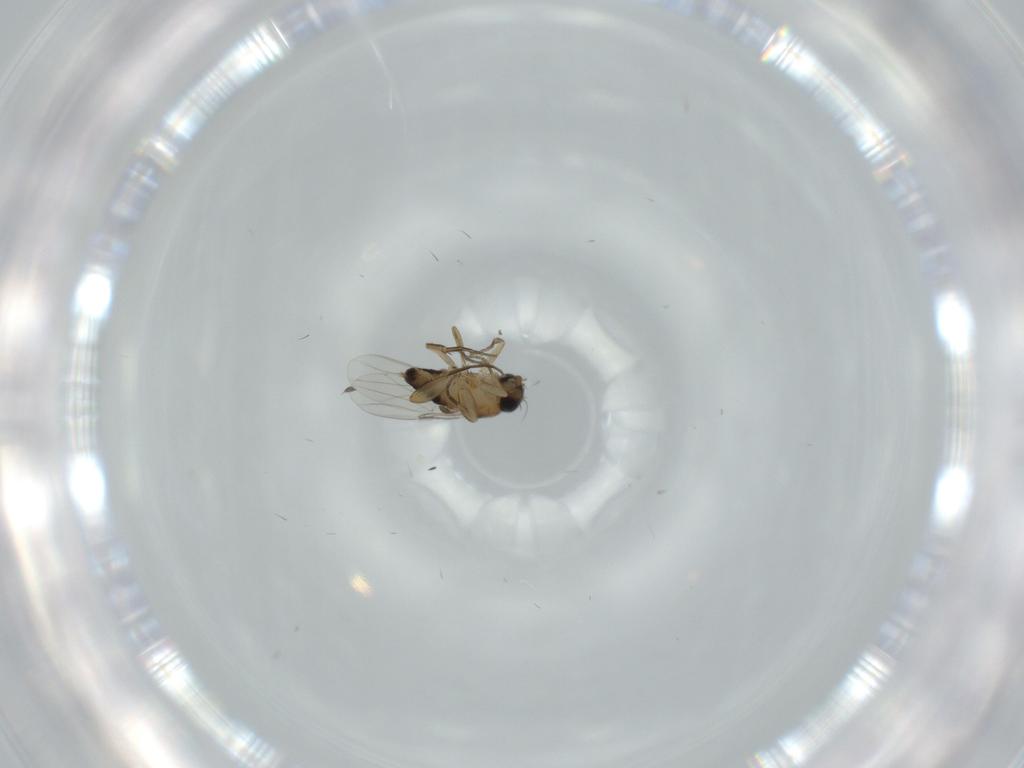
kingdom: Animalia
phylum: Arthropoda
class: Insecta
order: Diptera
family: Phoridae
